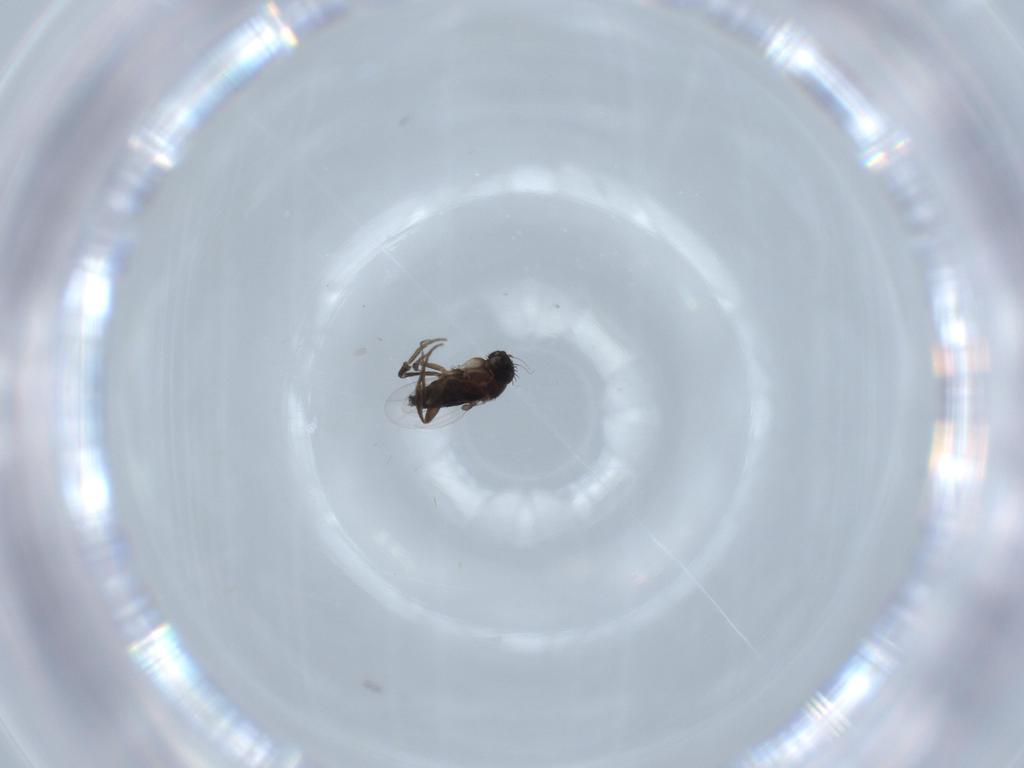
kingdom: Animalia
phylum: Arthropoda
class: Insecta
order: Diptera
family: Phoridae
